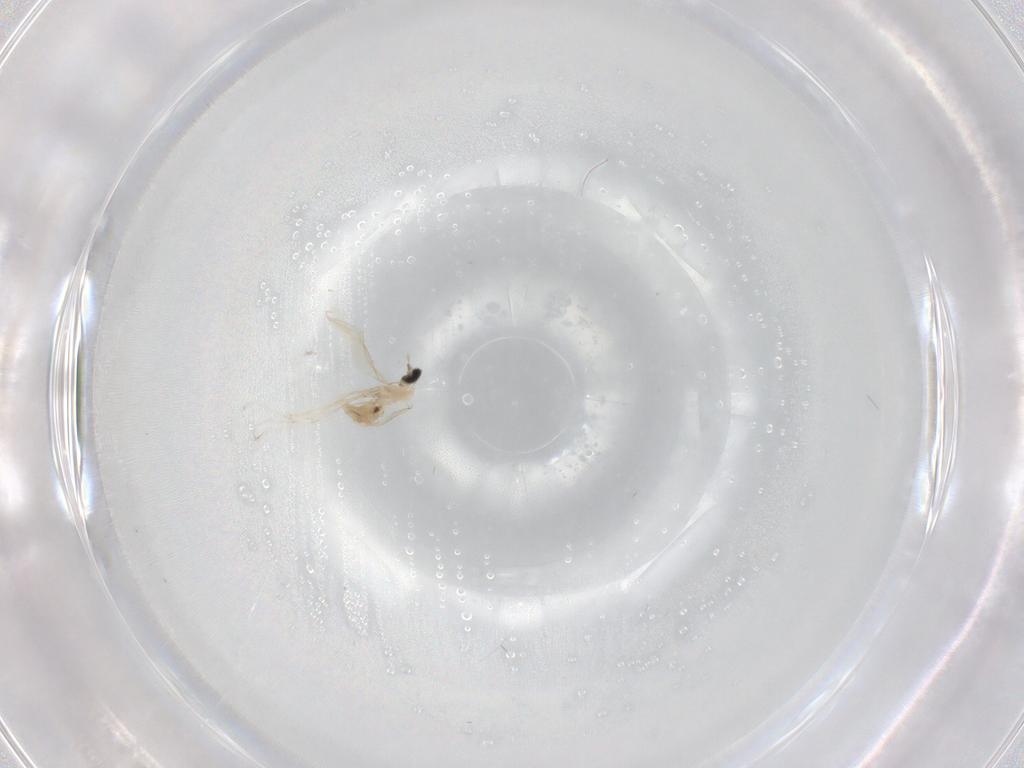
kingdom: Animalia
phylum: Arthropoda
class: Insecta
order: Diptera
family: Cecidomyiidae
